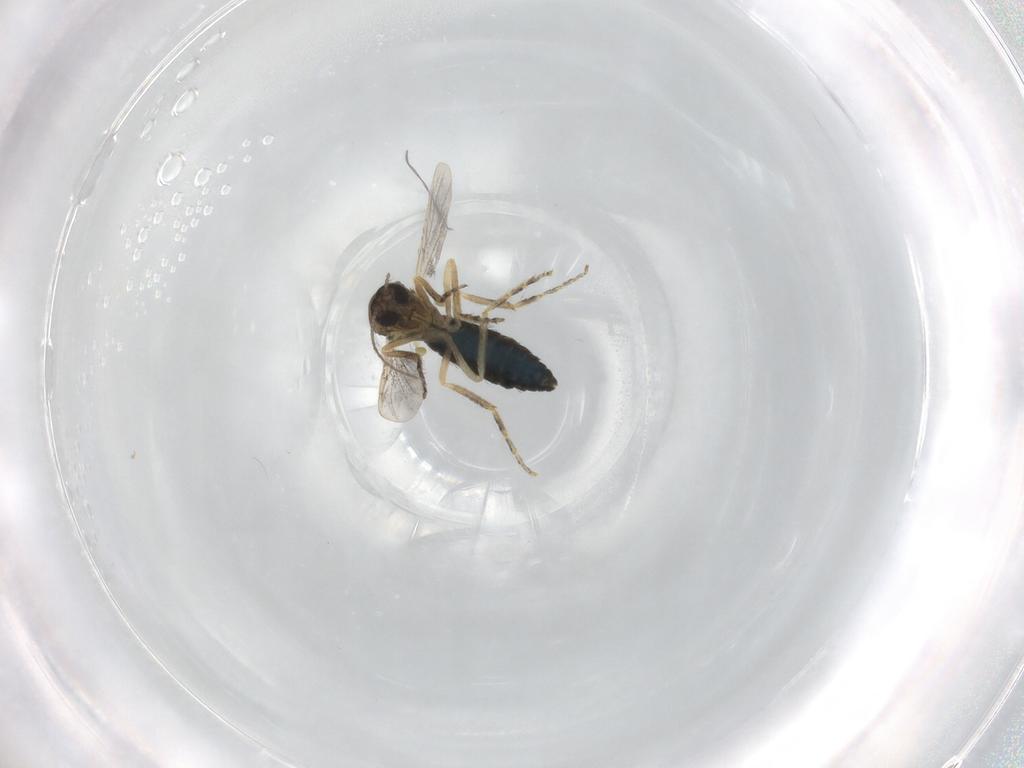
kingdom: Animalia
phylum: Arthropoda
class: Insecta
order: Diptera
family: Ceratopogonidae
